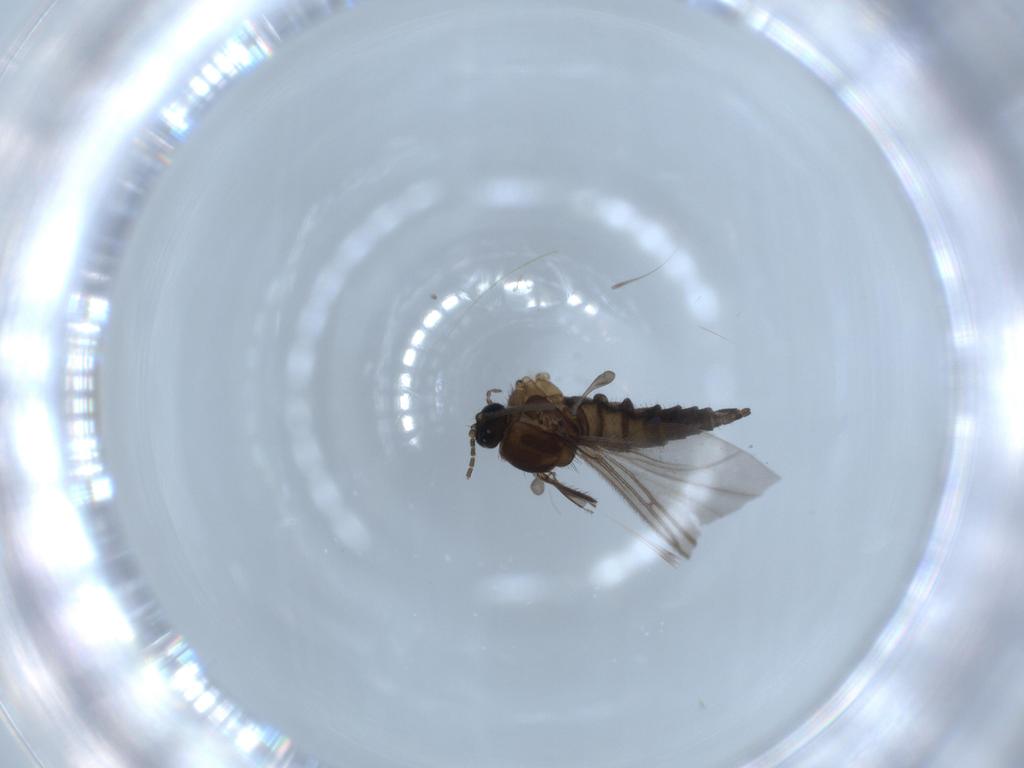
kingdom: Animalia
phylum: Arthropoda
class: Insecta
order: Diptera
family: Sciaridae
